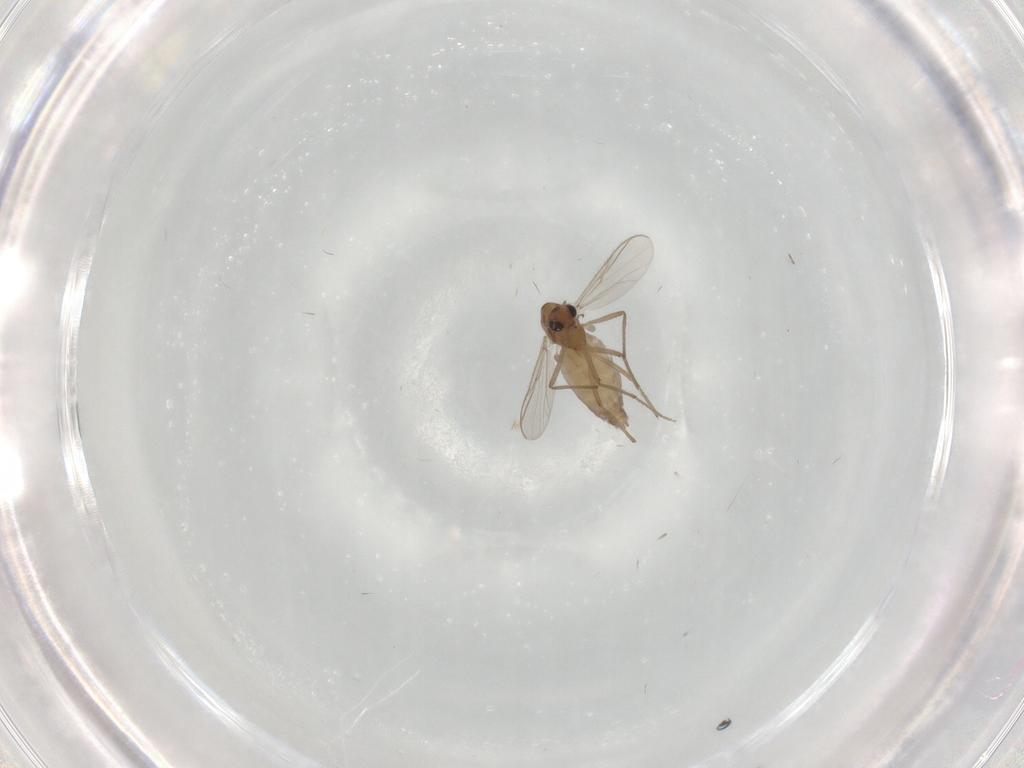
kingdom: Animalia
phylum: Arthropoda
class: Insecta
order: Diptera
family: Chironomidae
